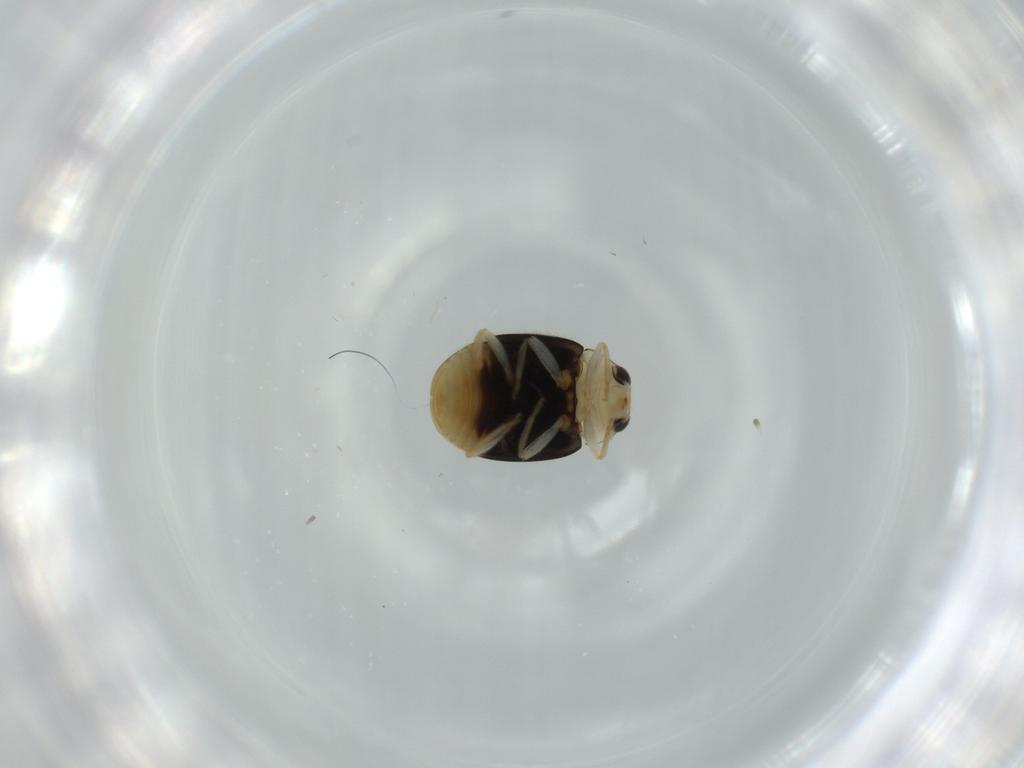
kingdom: Animalia
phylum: Arthropoda
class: Insecta
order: Coleoptera
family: Coccinellidae
